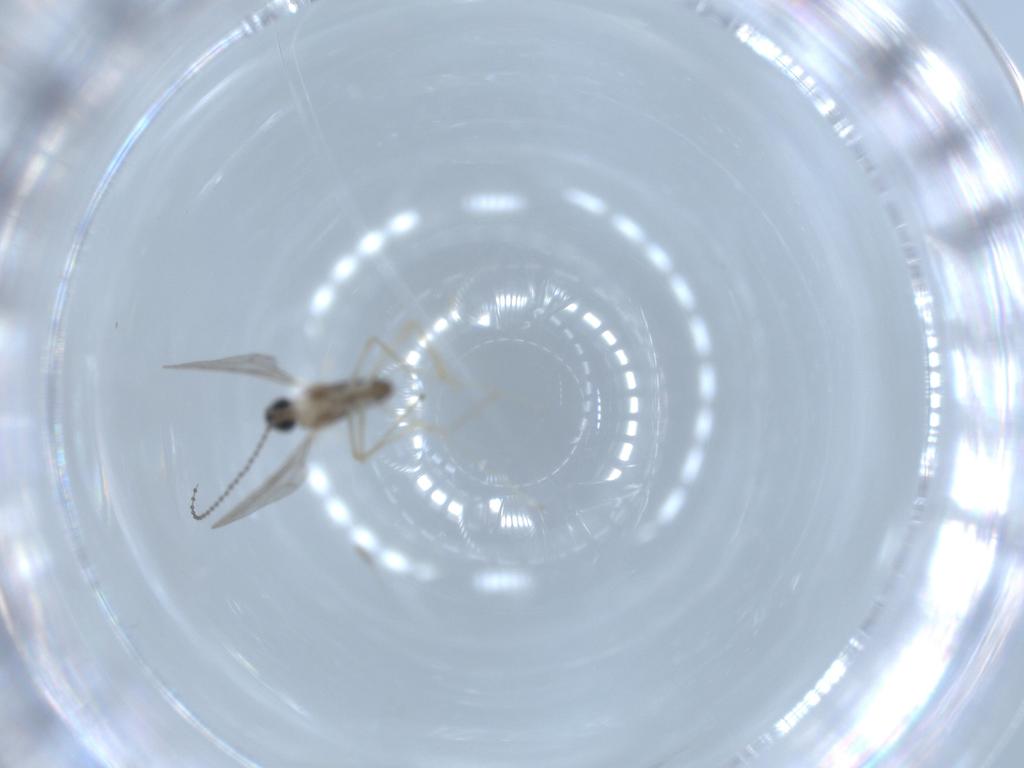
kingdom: Animalia
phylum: Arthropoda
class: Insecta
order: Diptera
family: Cecidomyiidae
